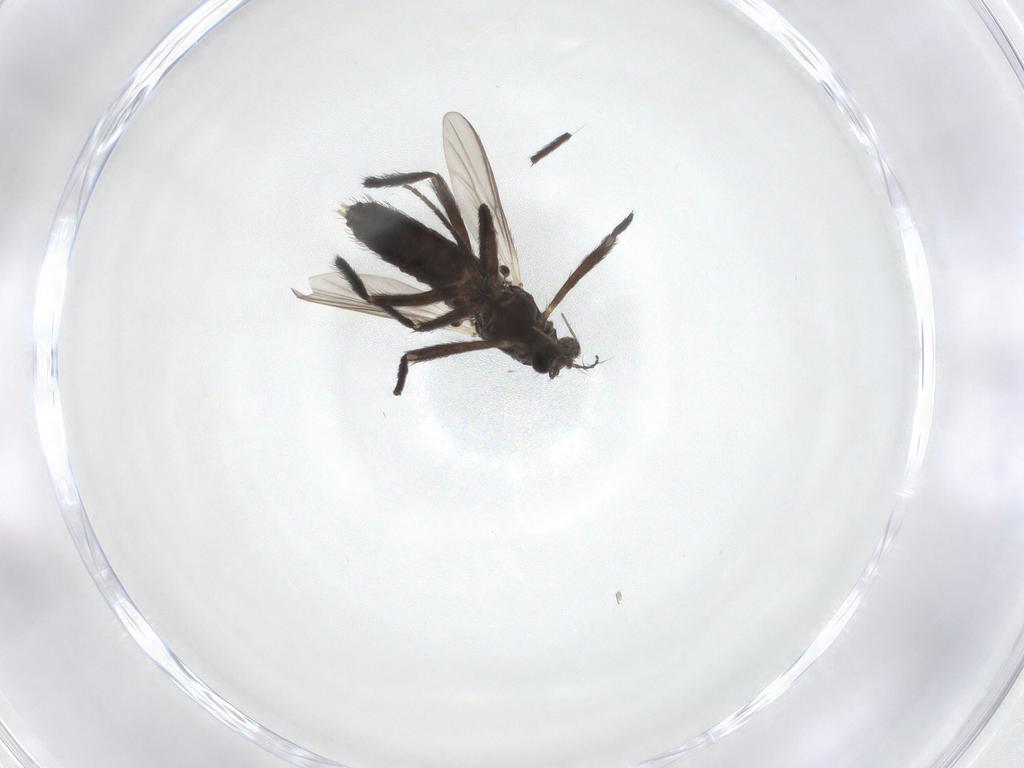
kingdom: Animalia
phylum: Arthropoda
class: Insecta
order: Diptera
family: Chironomidae
